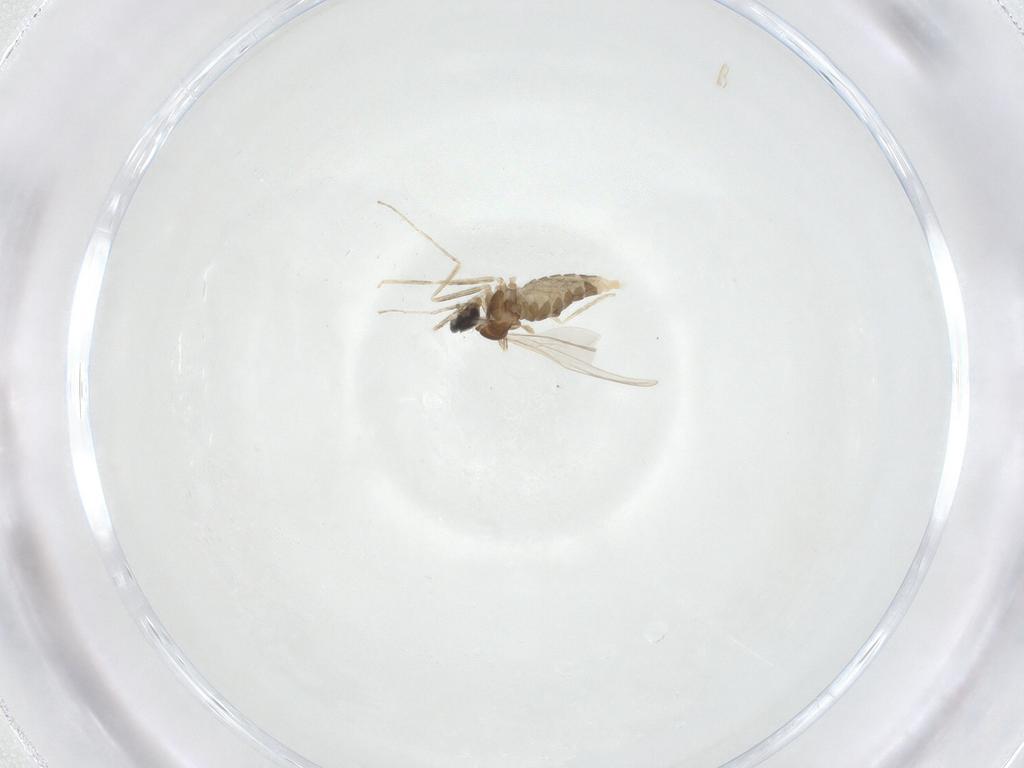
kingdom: Animalia
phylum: Arthropoda
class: Insecta
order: Diptera
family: Cecidomyiidae
